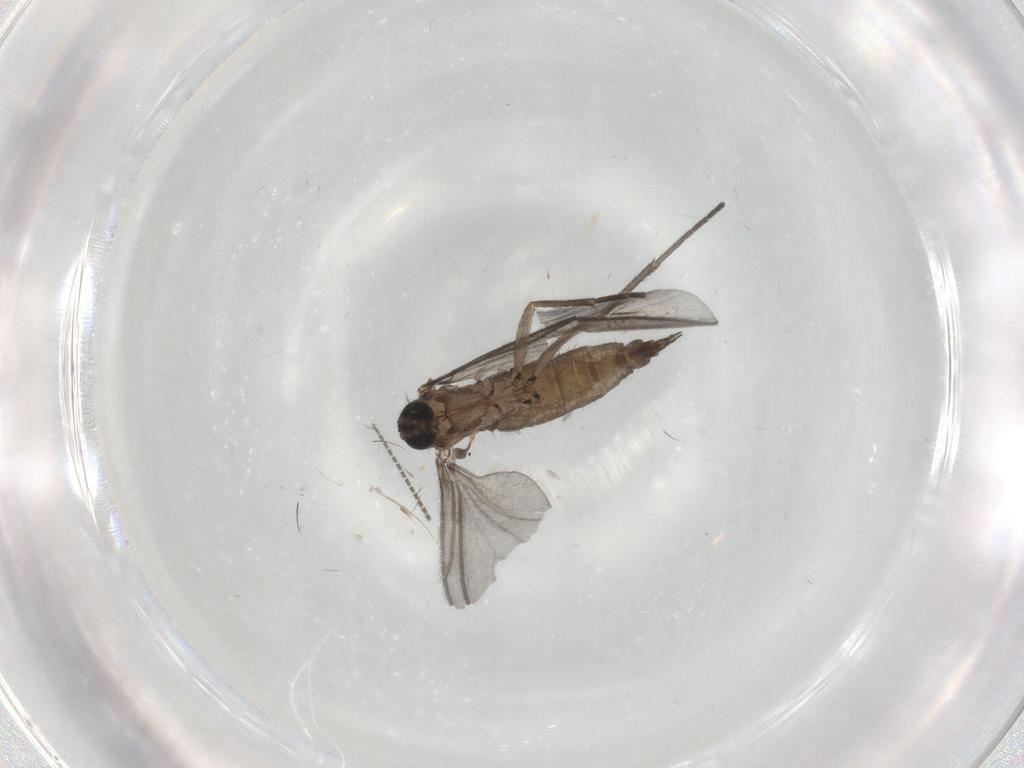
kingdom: Animalia
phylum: Arthropoda
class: Insecta
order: Diptera
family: Sciaridae
